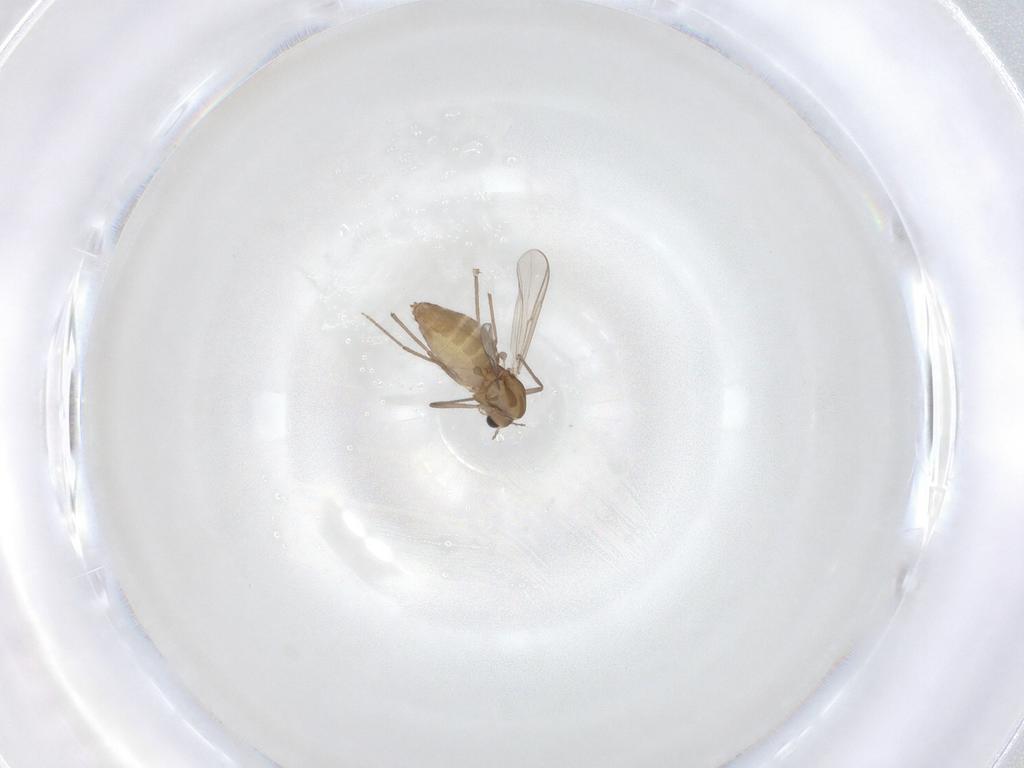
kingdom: Animalia
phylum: Arthropoda
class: Insecta
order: Diptera
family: Chironomidae
